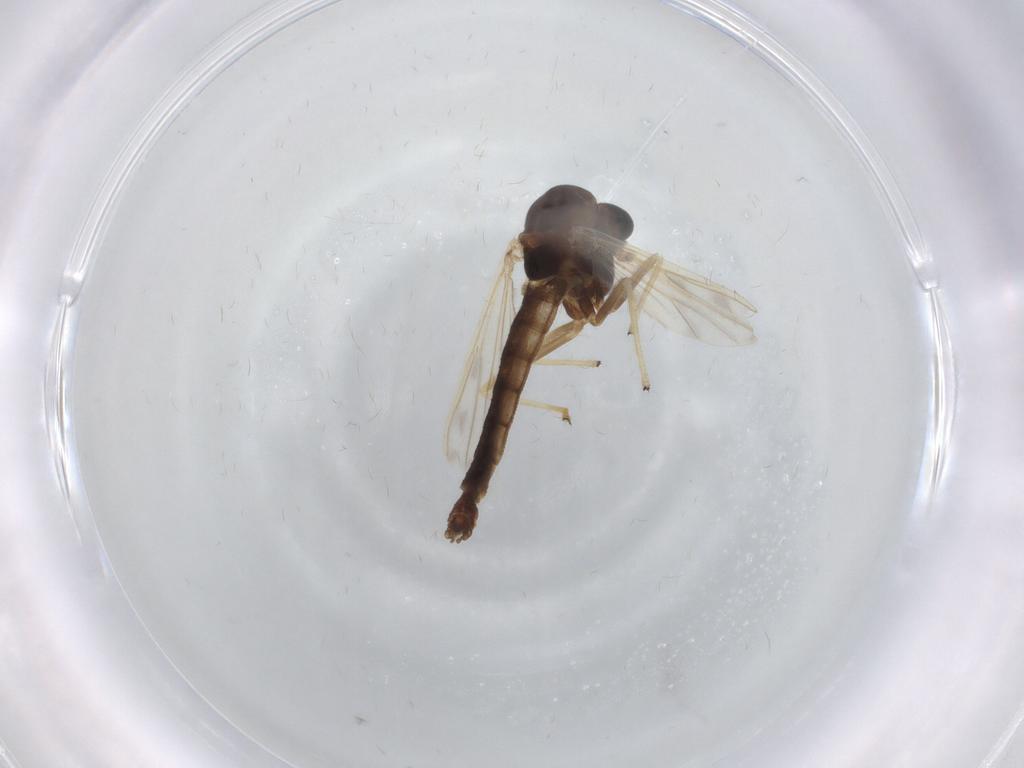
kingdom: Animalia
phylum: Arthropoda
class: Insecta
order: Diptera
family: Chironomidae
